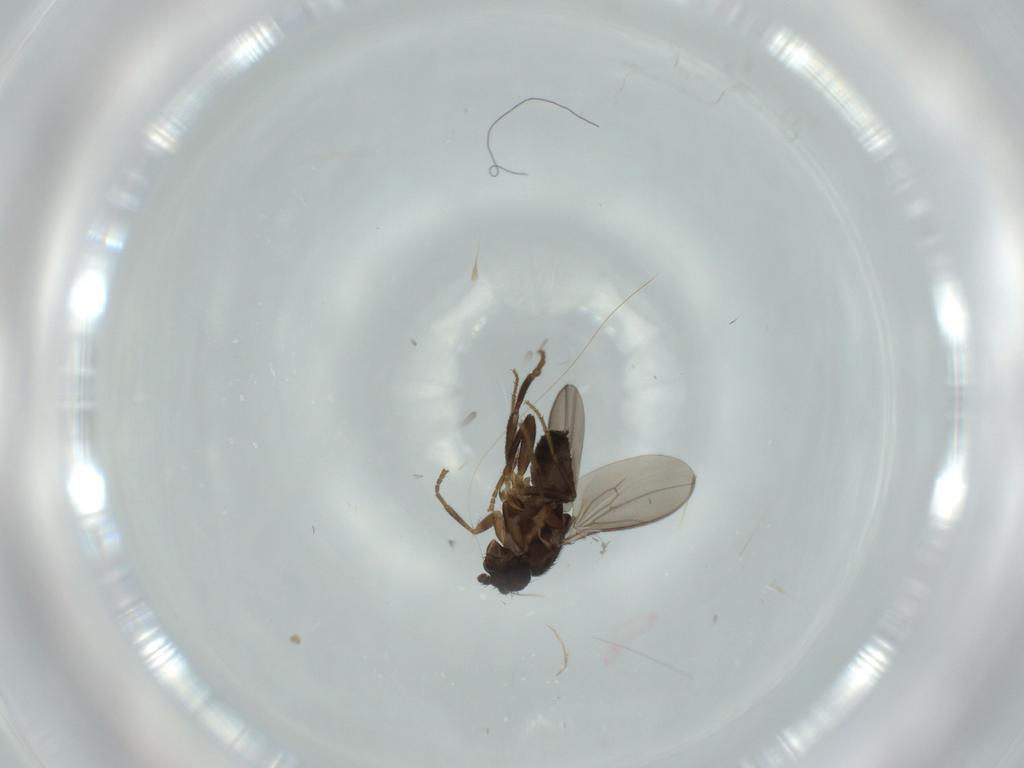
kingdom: Animalia
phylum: Arthropoda
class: Insecta
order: Diptera
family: Sphaeroceridae
